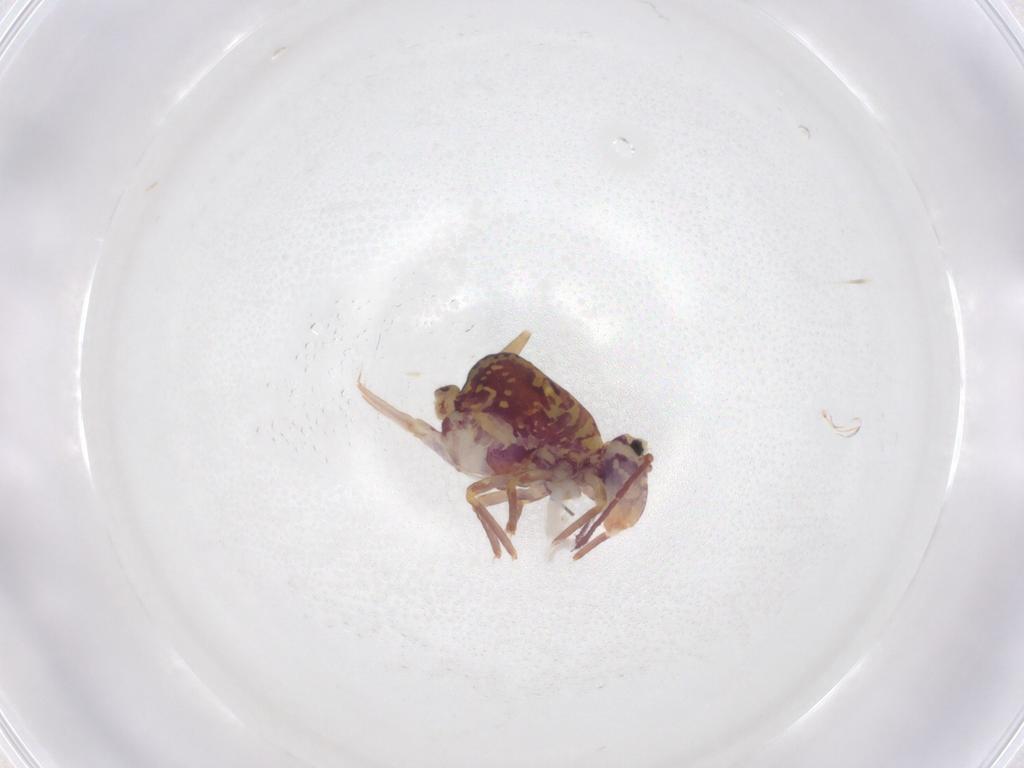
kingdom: Animalia
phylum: Arthropoda
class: Collembola
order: Symphypleona
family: Dicyrtomidae
